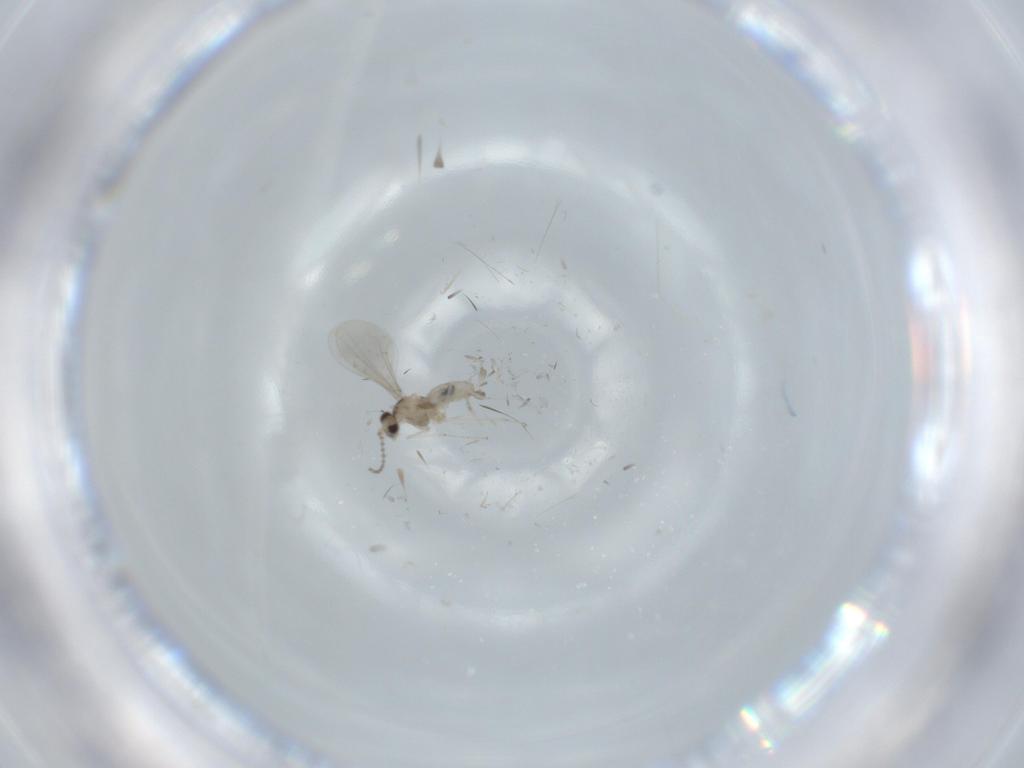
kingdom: Animalia
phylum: Arthropoda
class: Insecta
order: Diptera
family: Cecidomyiidae
